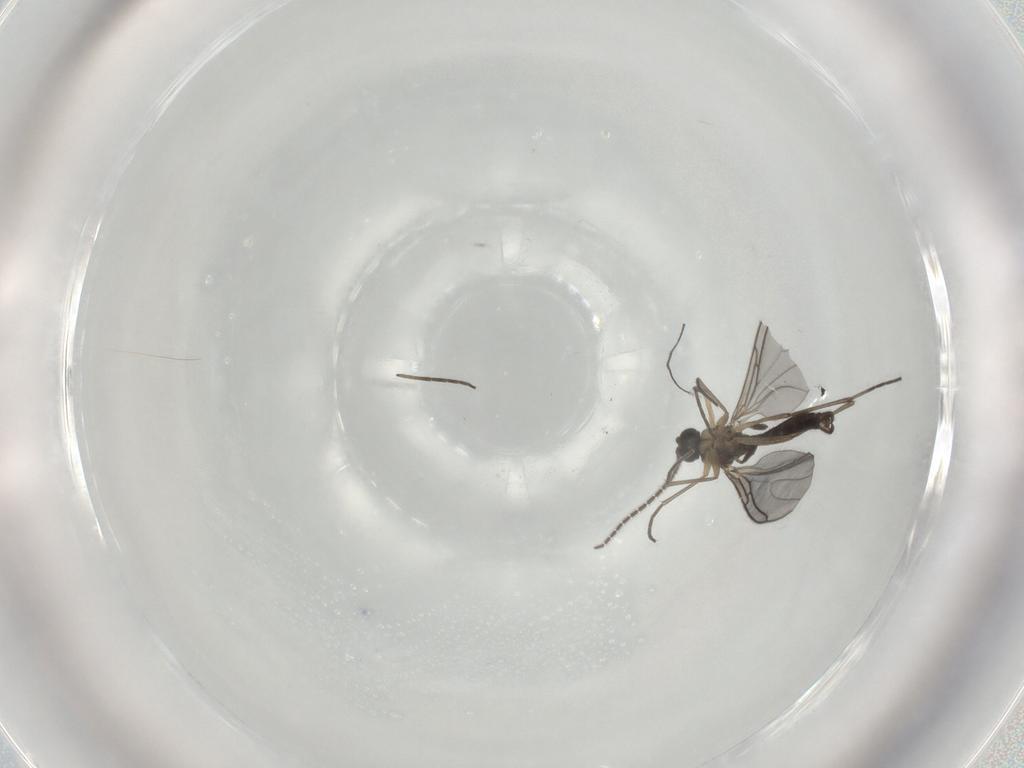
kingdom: Animalia
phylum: Arthropoda
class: Insecta
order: Diptera
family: Sciaridae
